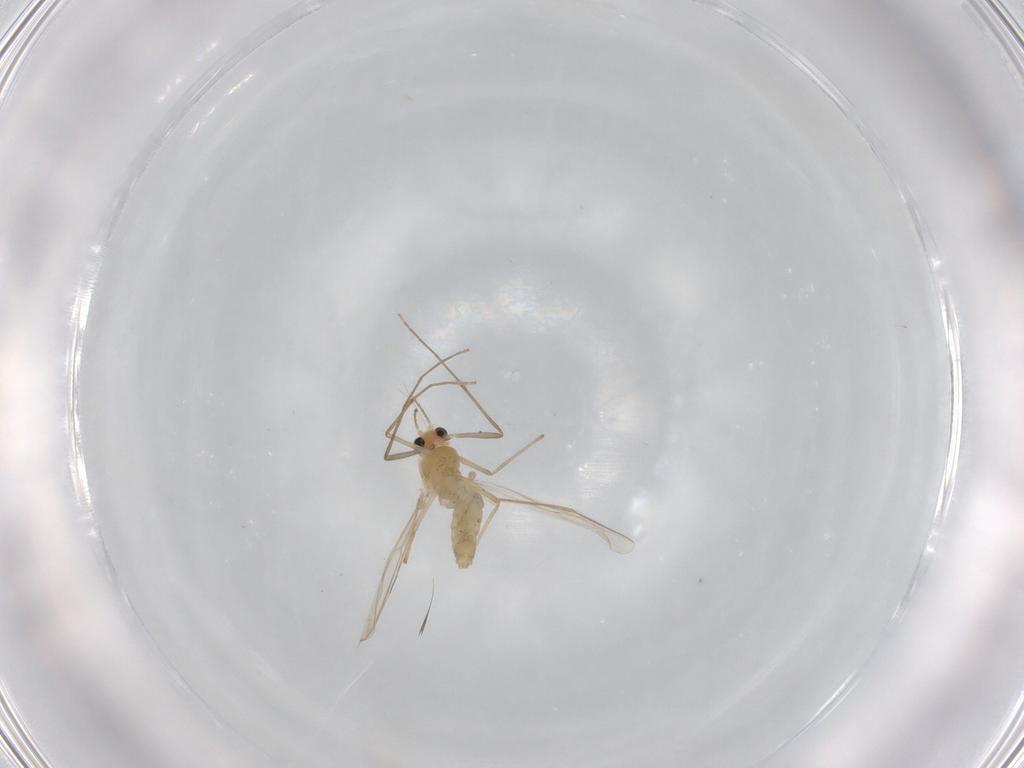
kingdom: Animalia
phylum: Arthropoda
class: Insecta
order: Diptera
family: Chironomidae
